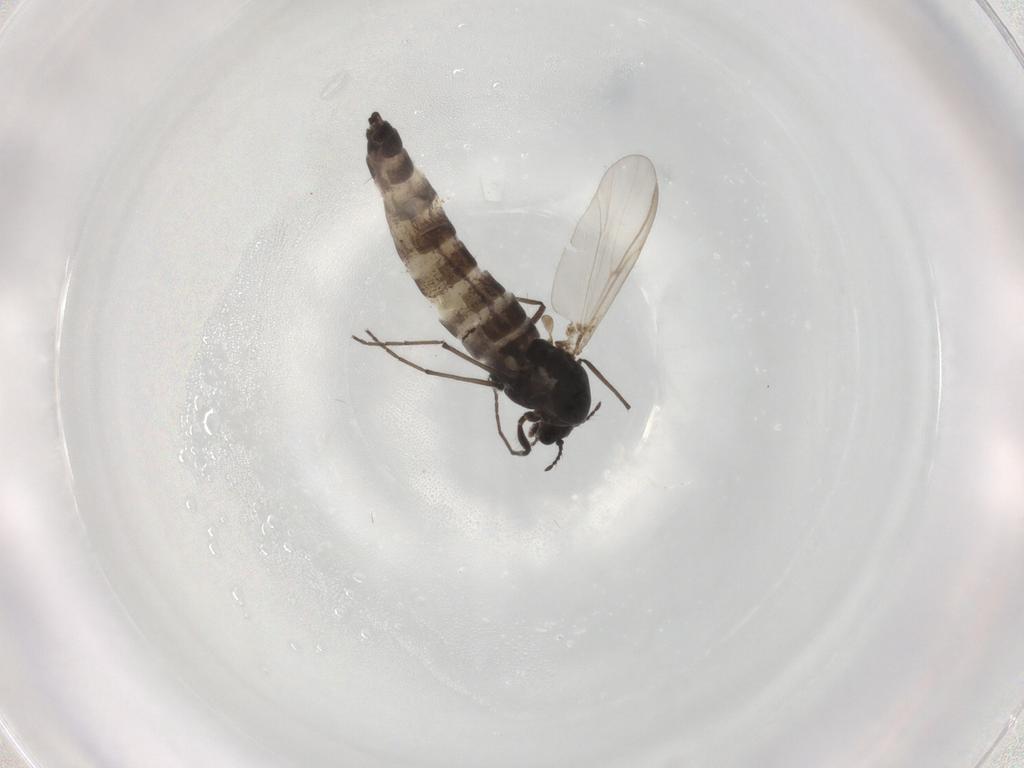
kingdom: Animalia
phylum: Arthropoda
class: Insecta
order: Diptera
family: Chironomidae
